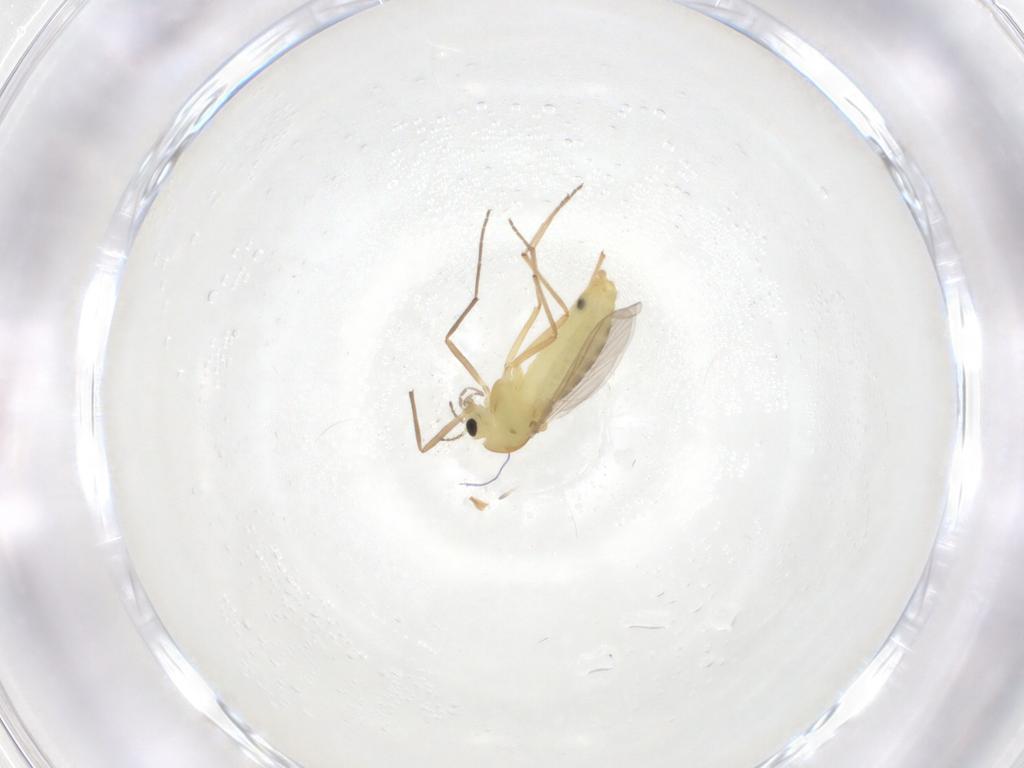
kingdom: Animalia
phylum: Arthropoda
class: Insecta
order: Diptera
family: Chironomidae
